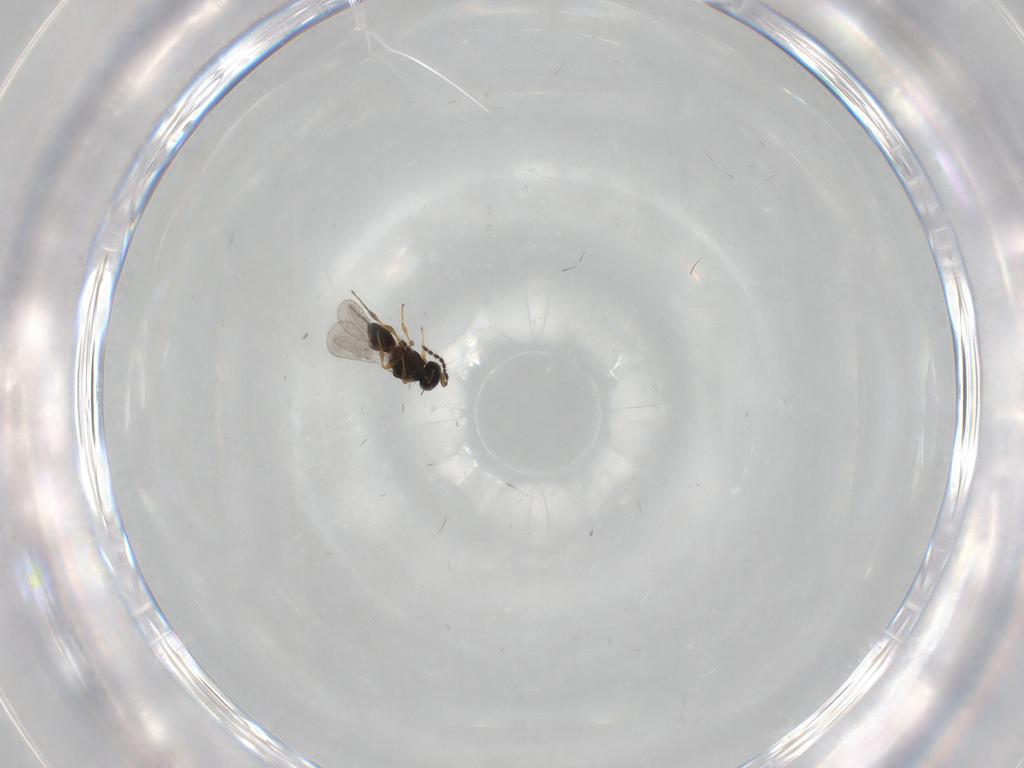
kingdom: Animalia
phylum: Arthropoda
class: Insecta
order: Hymenoptera
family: Platygastridae
